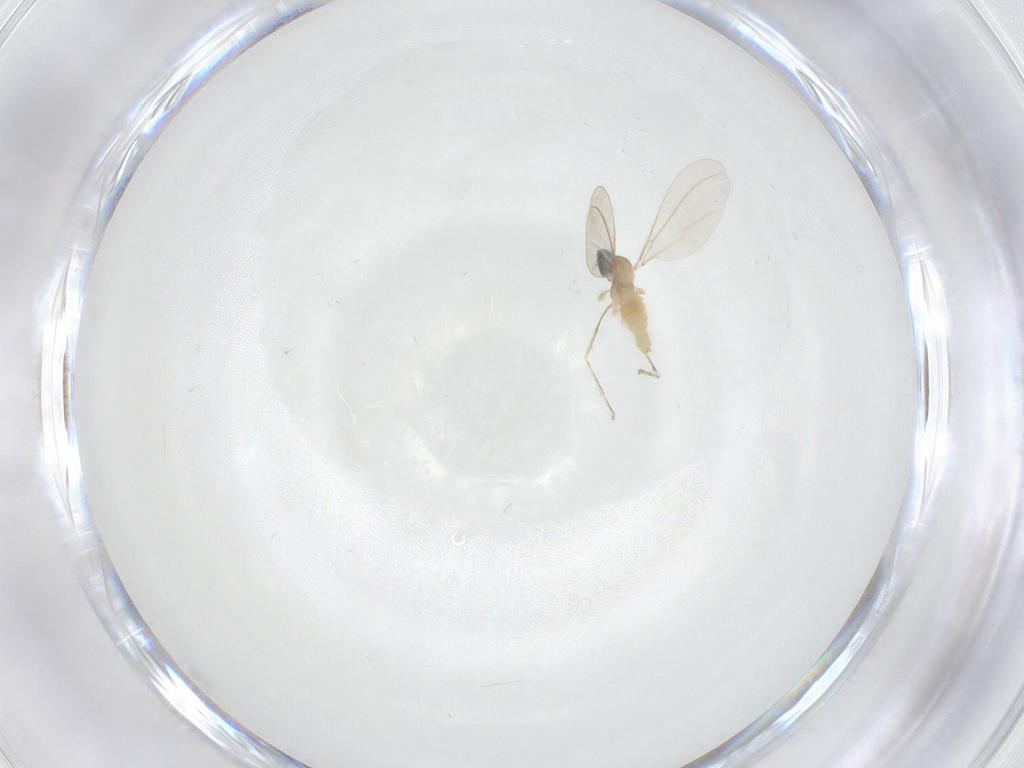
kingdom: Animalia
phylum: Arthropoda
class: Insecta
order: Diptera
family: Cecidomyiidae
